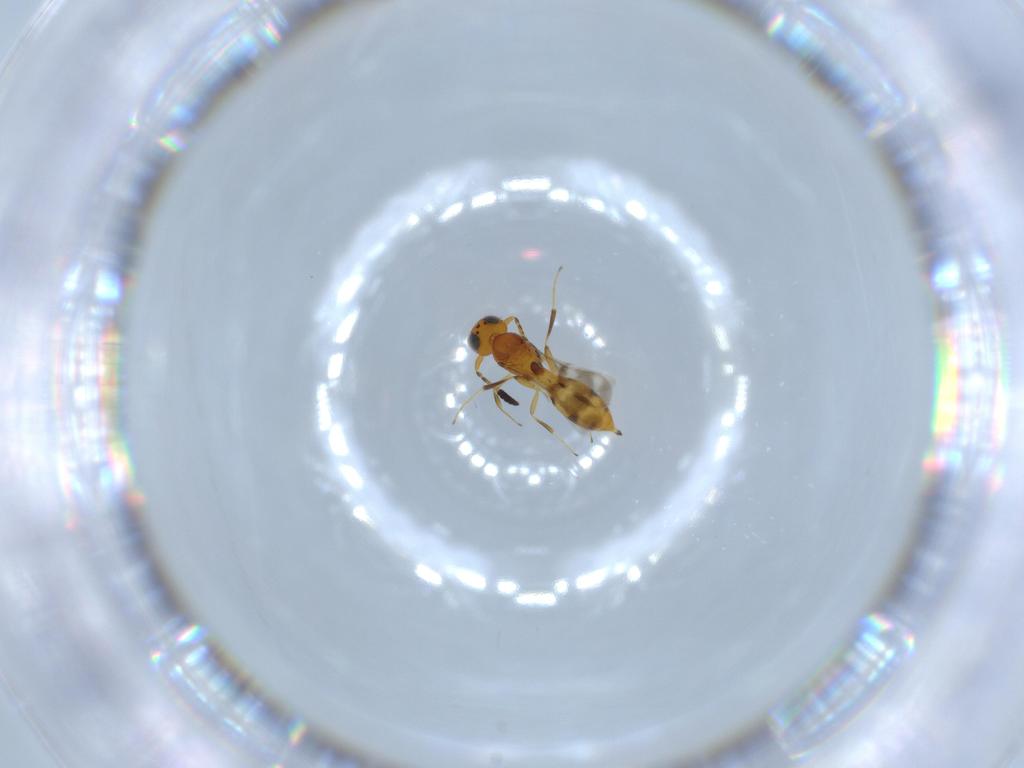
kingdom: Animalia
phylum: Arthropoda
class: Insecta
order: Hymenoptera
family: Scelionidae
